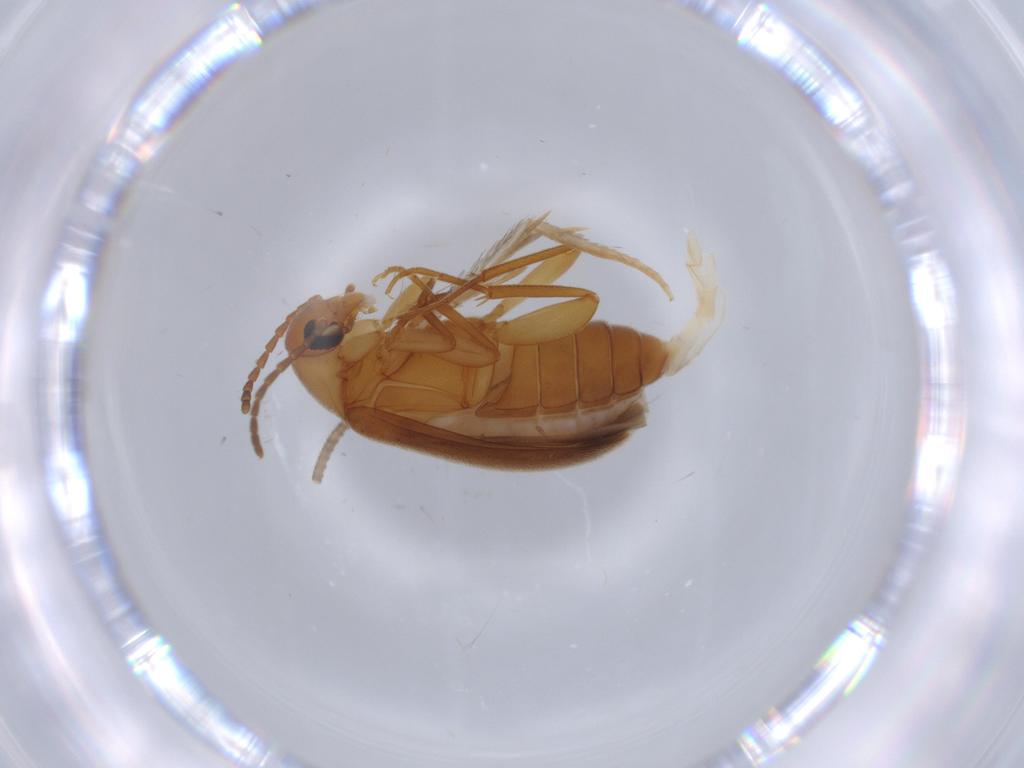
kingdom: Animalia
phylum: Arthropoda
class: Insecta
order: Coleoptera
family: Scraptiidae
